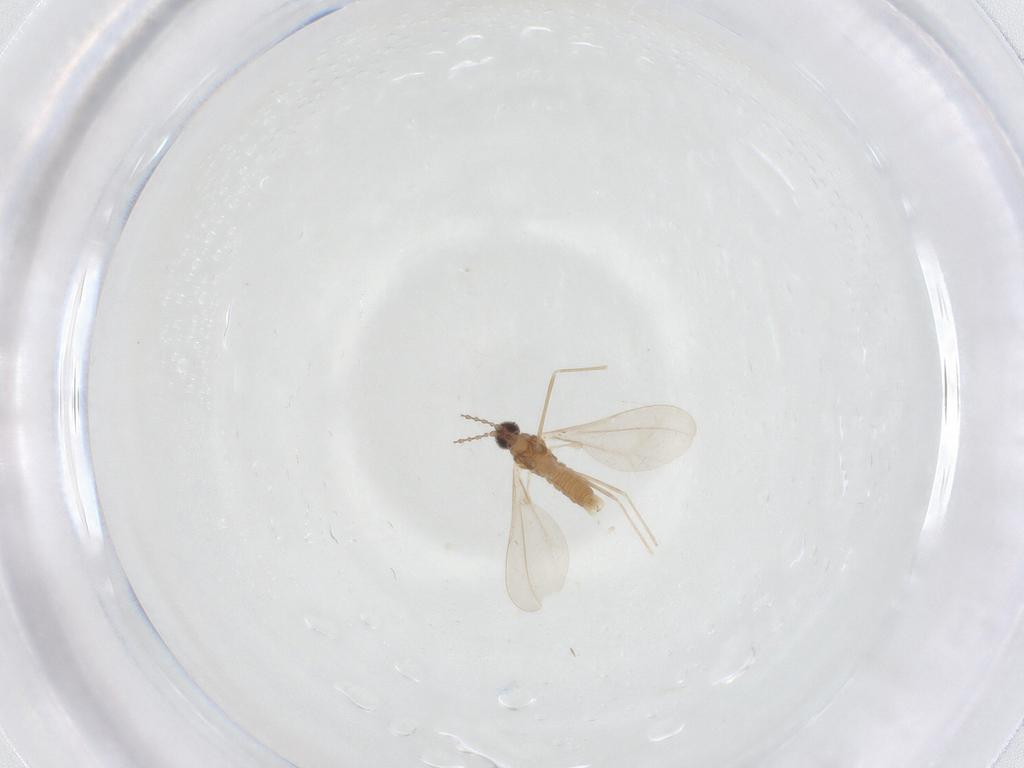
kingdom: Animalia
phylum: Arthropoda
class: Insecta
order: Diptera
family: Cecidomyiidae
